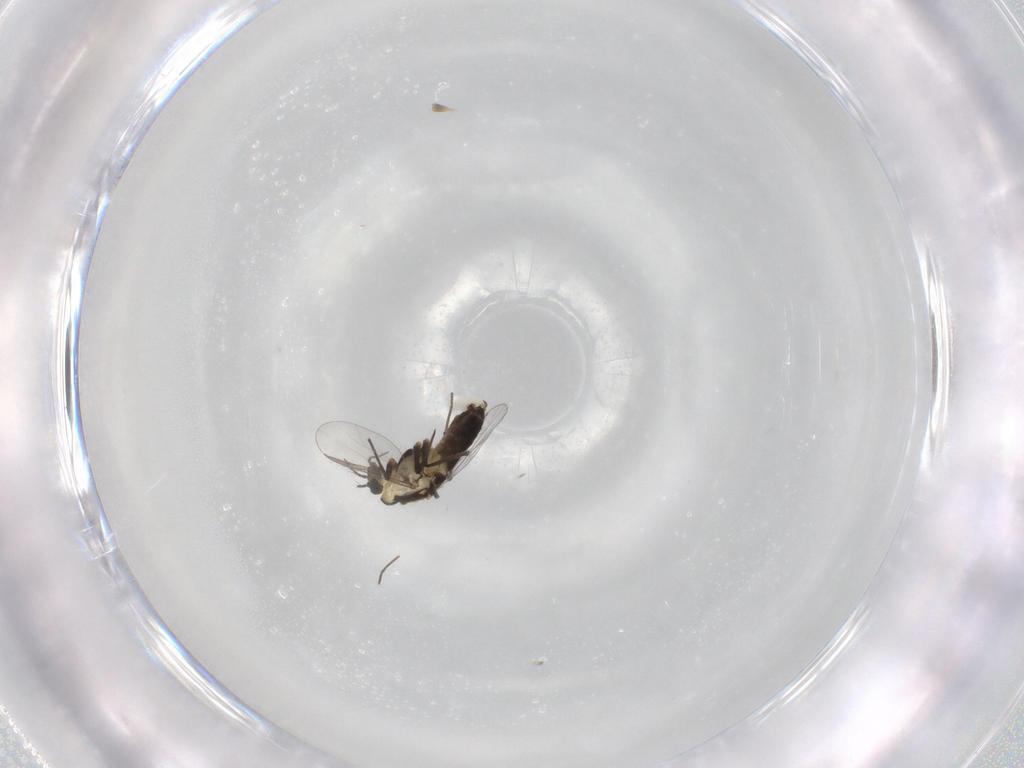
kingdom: Animalia
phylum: Arthropoda
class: Insecta
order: Diptera
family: Chironomidae
